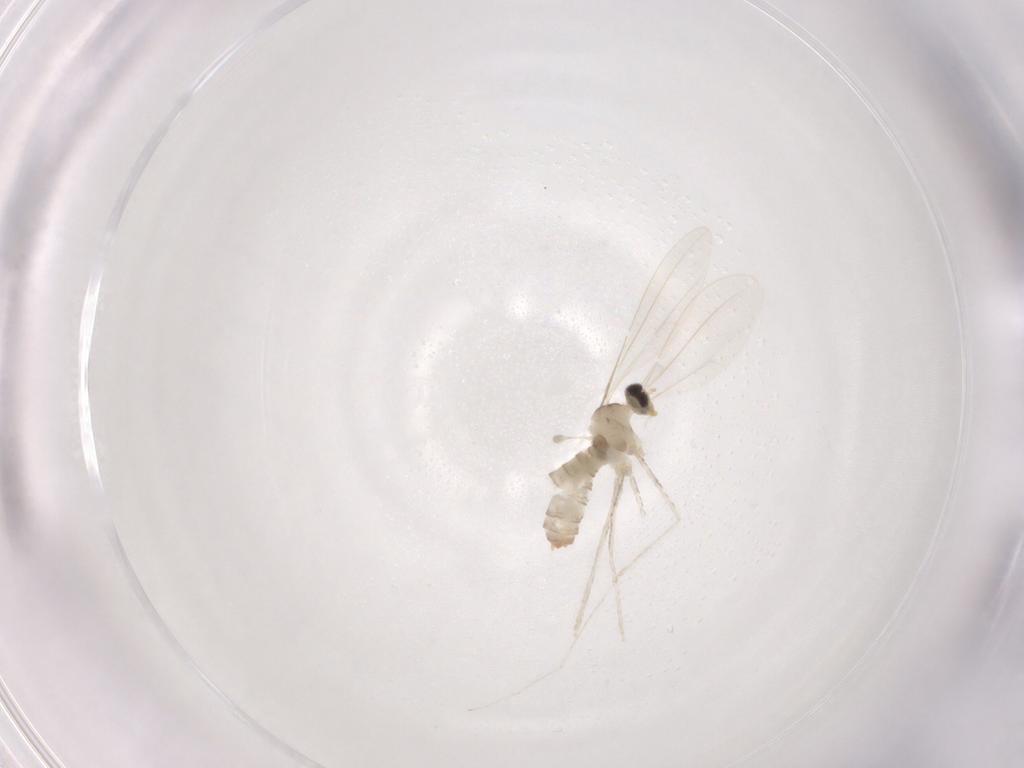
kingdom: Animalia
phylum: Arthropoda
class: Insecta
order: Diptera
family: Cecidomyiidae
